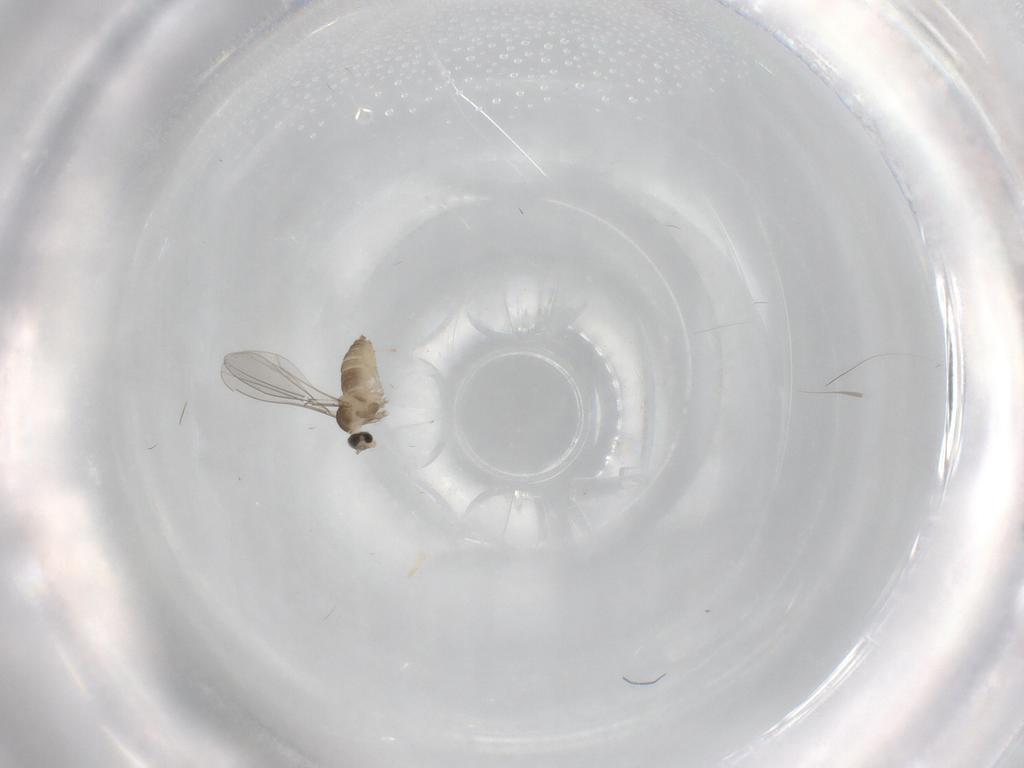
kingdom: Animalia
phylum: Arthropoda
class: Insecta
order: Diptera
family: Cecidomyiidae
